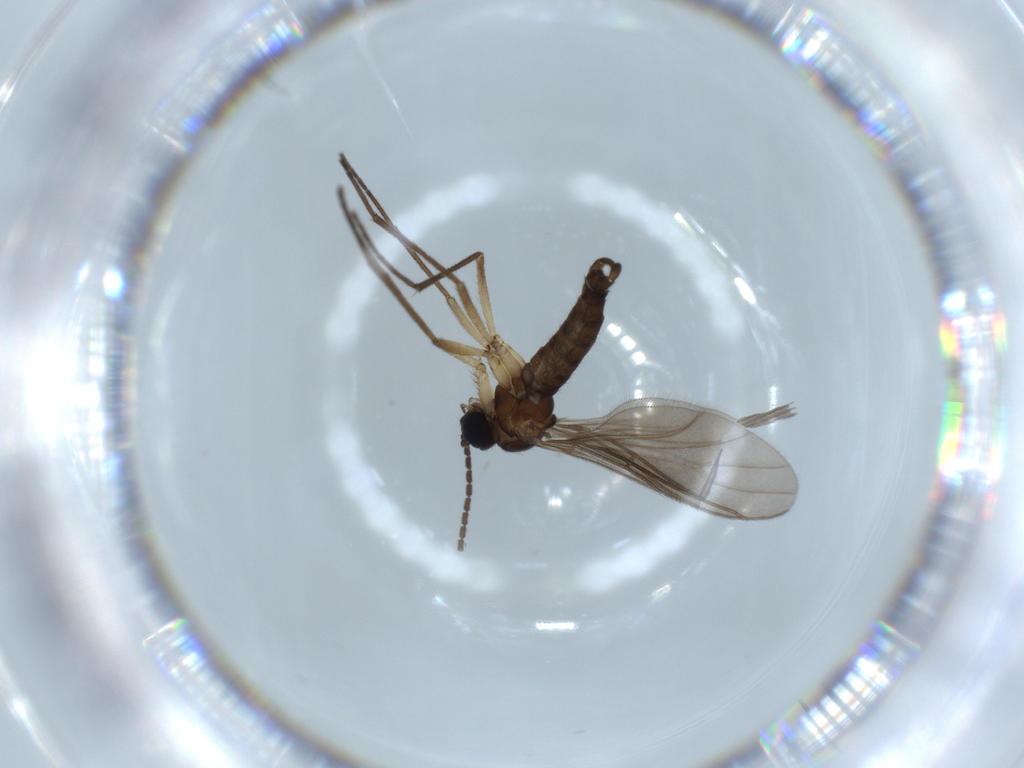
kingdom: Animalia
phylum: Arthropoda
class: Insecta
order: Diptera
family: Sciaridae
